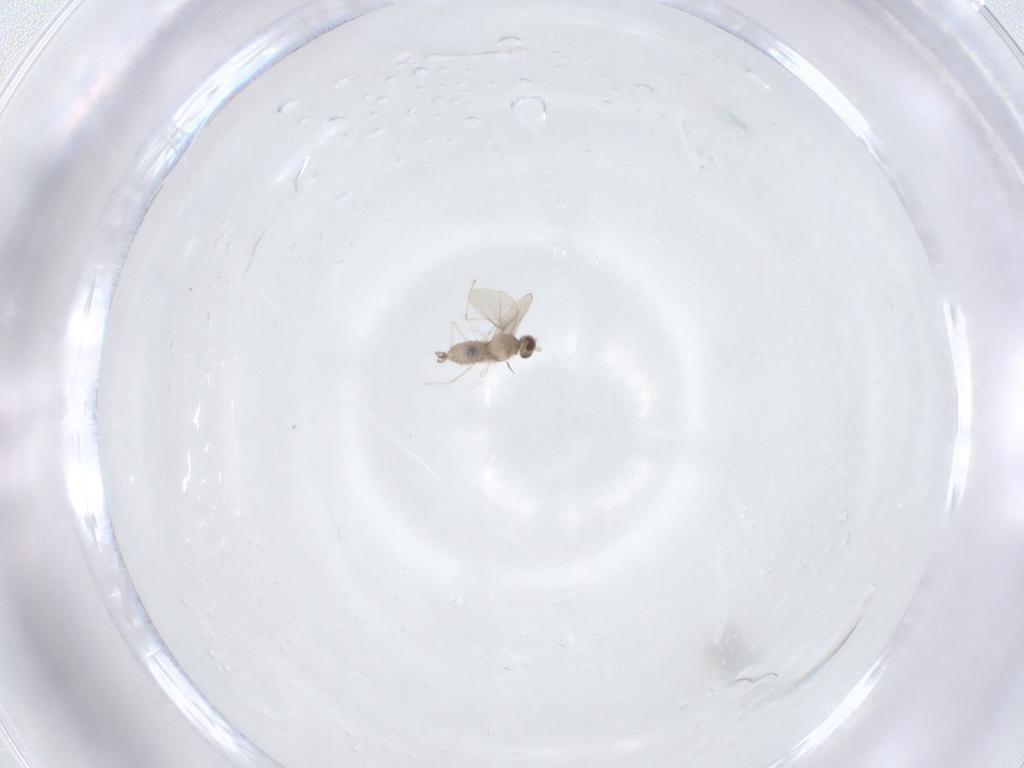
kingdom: Animalia
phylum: Arthropoda
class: Insecta
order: Diptera
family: Cecidomyiidae
